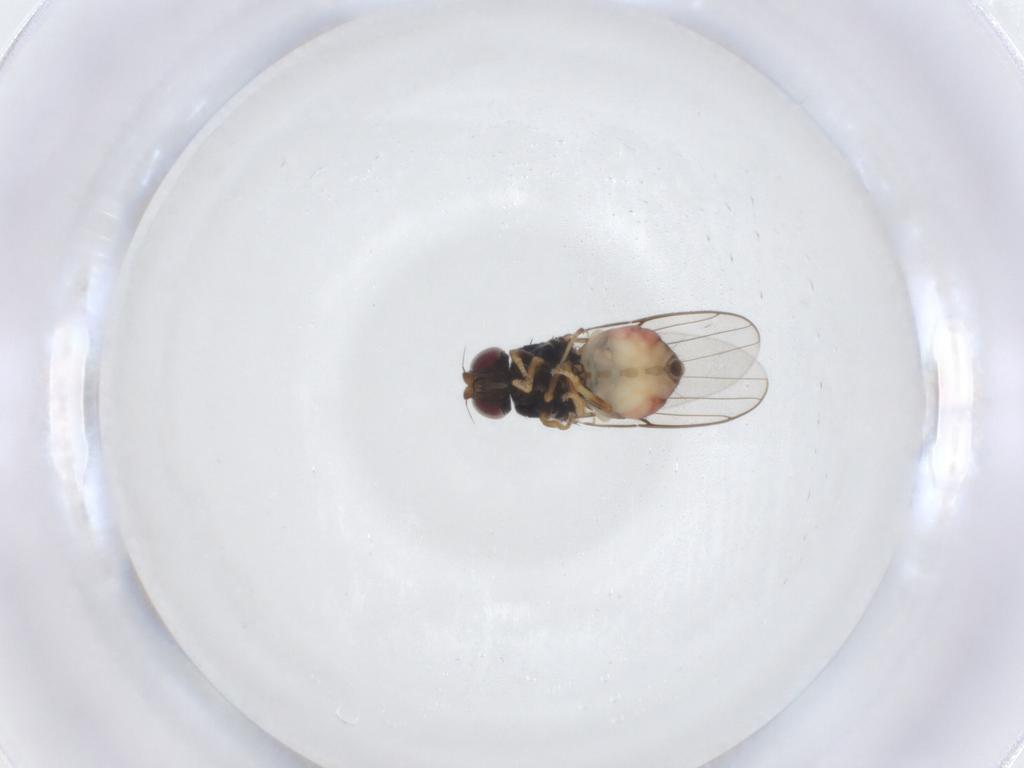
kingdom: Animalia
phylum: Arthropoda
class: Insecta
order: Diptera
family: Chloropidae
